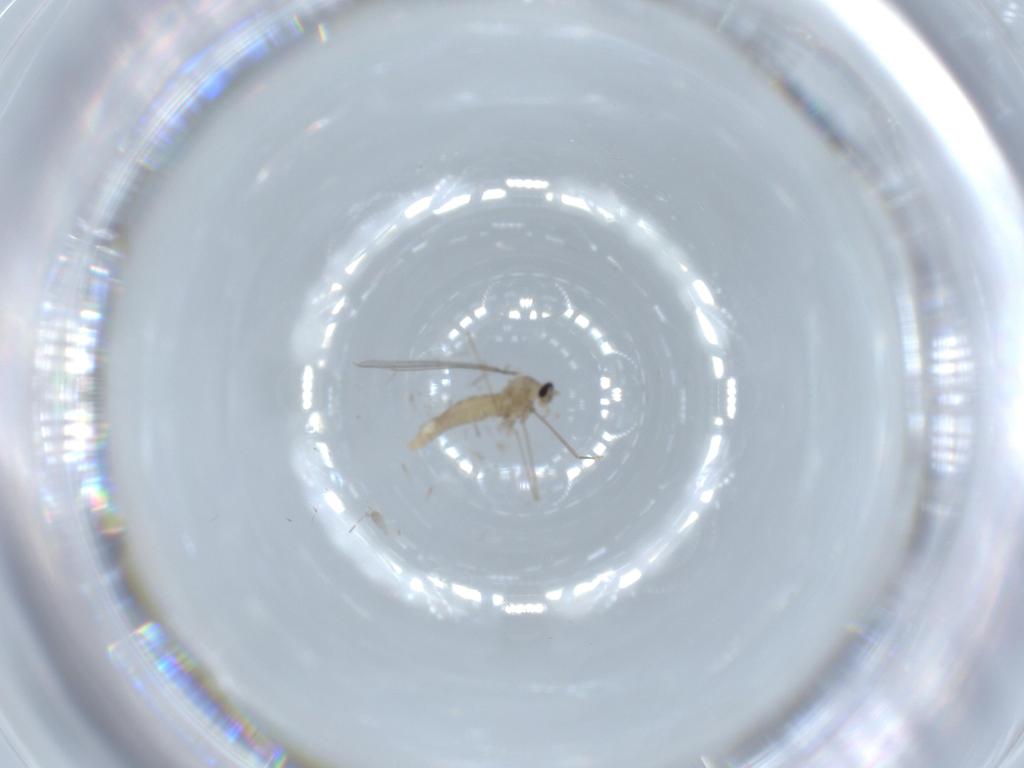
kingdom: Animalia
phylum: Arthropoda
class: Insecta
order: Diptera
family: Cecidomyiidae
